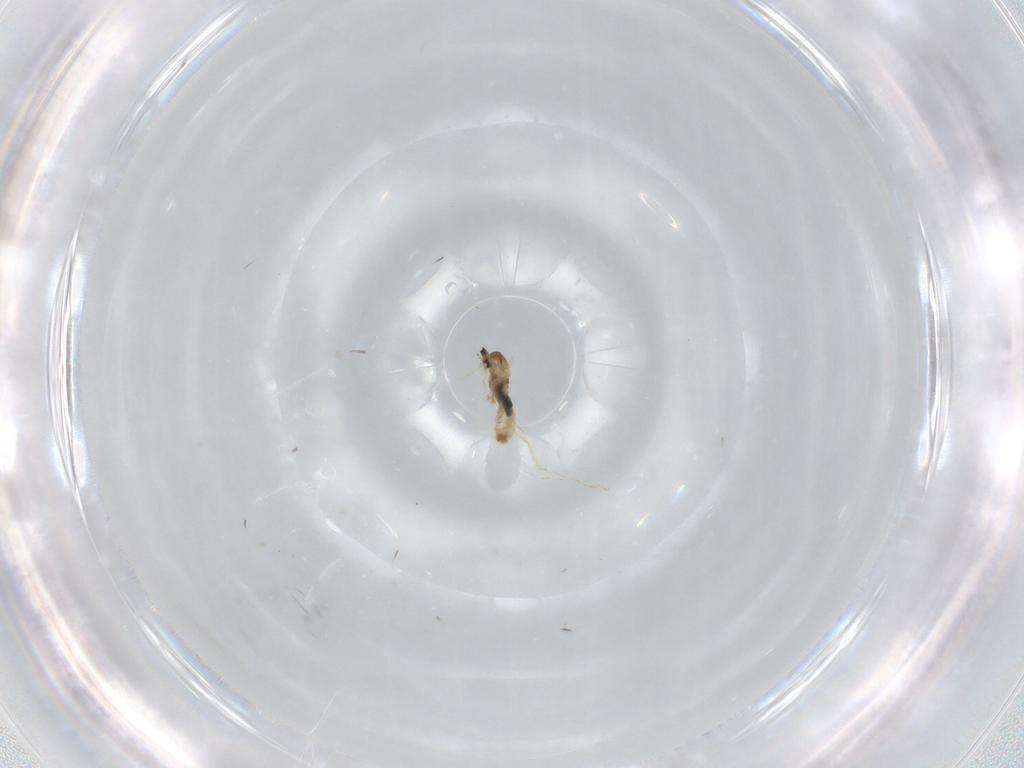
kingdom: Animalia
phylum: Arthropoda
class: Insecta
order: Diptera
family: Cecidomyiidae
